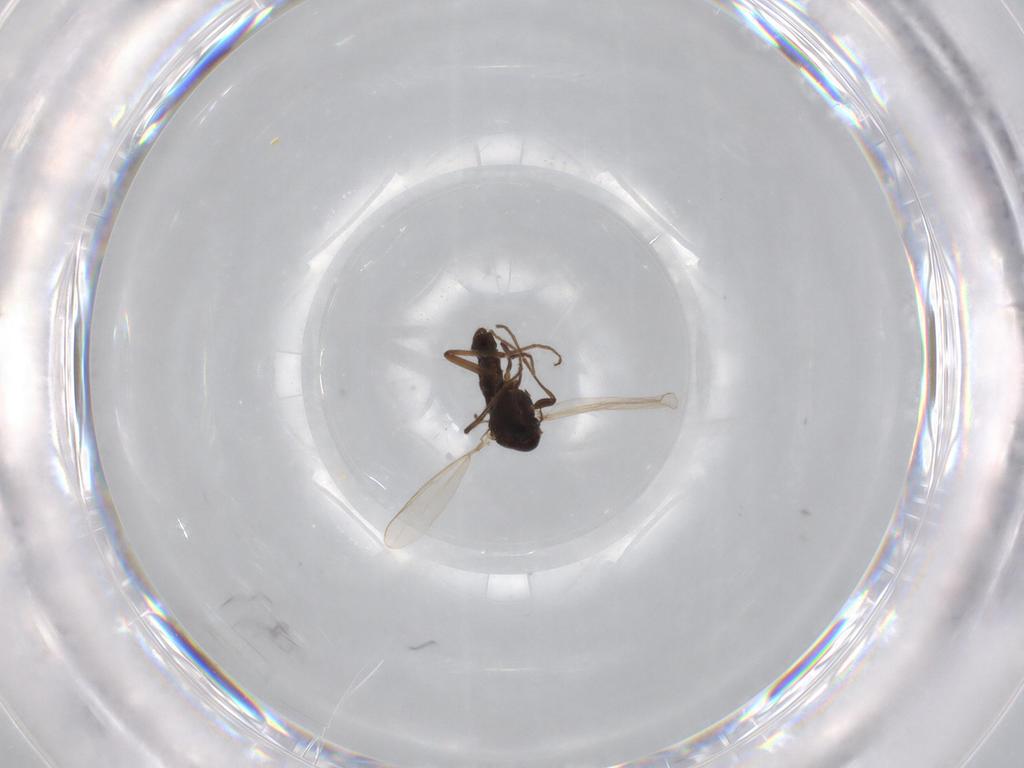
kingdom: Animalia
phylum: Arthropoda
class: Insecta
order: Diptera
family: Chironomidae
